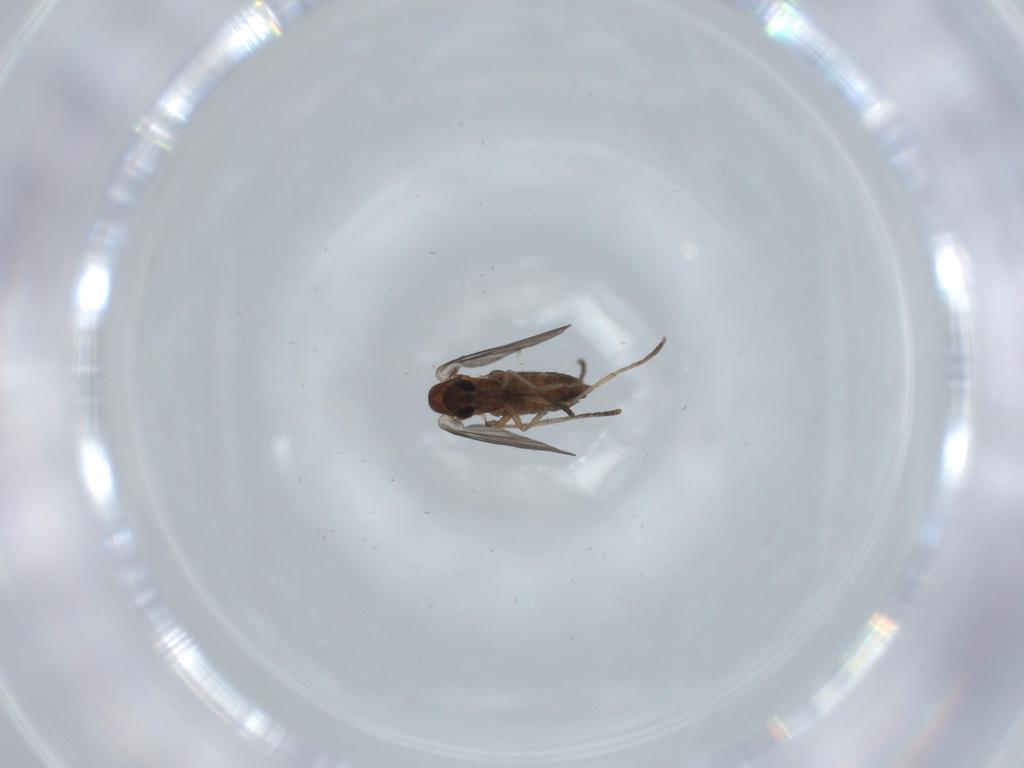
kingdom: Animalia
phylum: Arthropoda
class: Insecta
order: Diptera
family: Psychodidae
